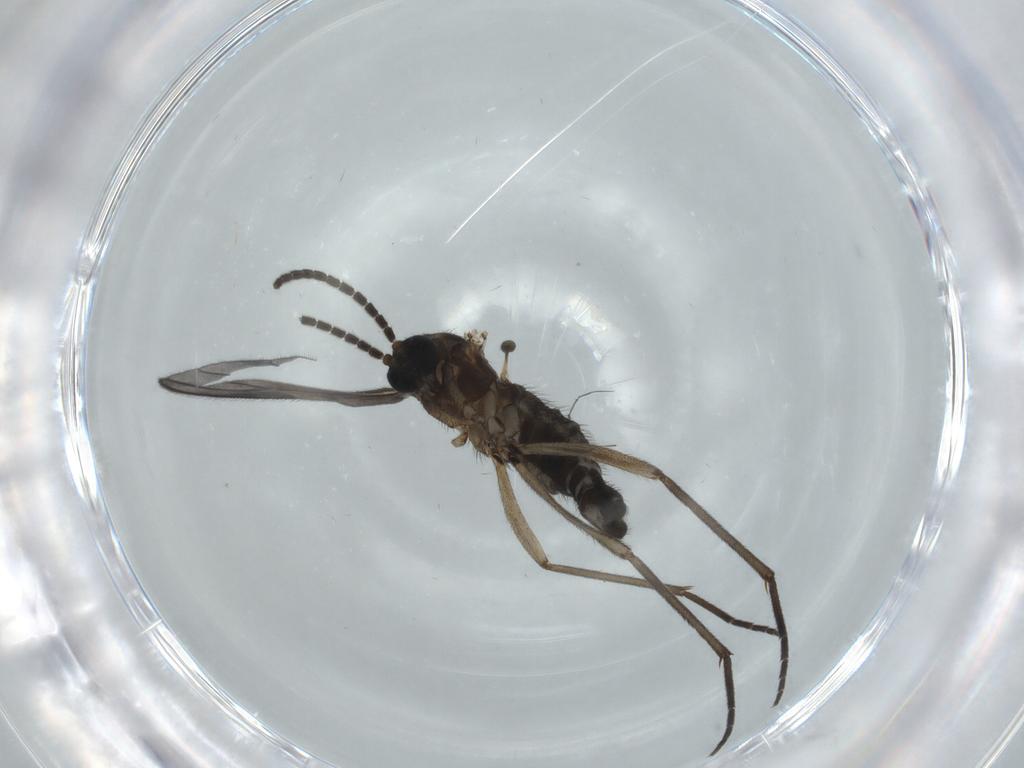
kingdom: Animalia
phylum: Arthropoda
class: Insecta
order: Diptera
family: Sciaridae
